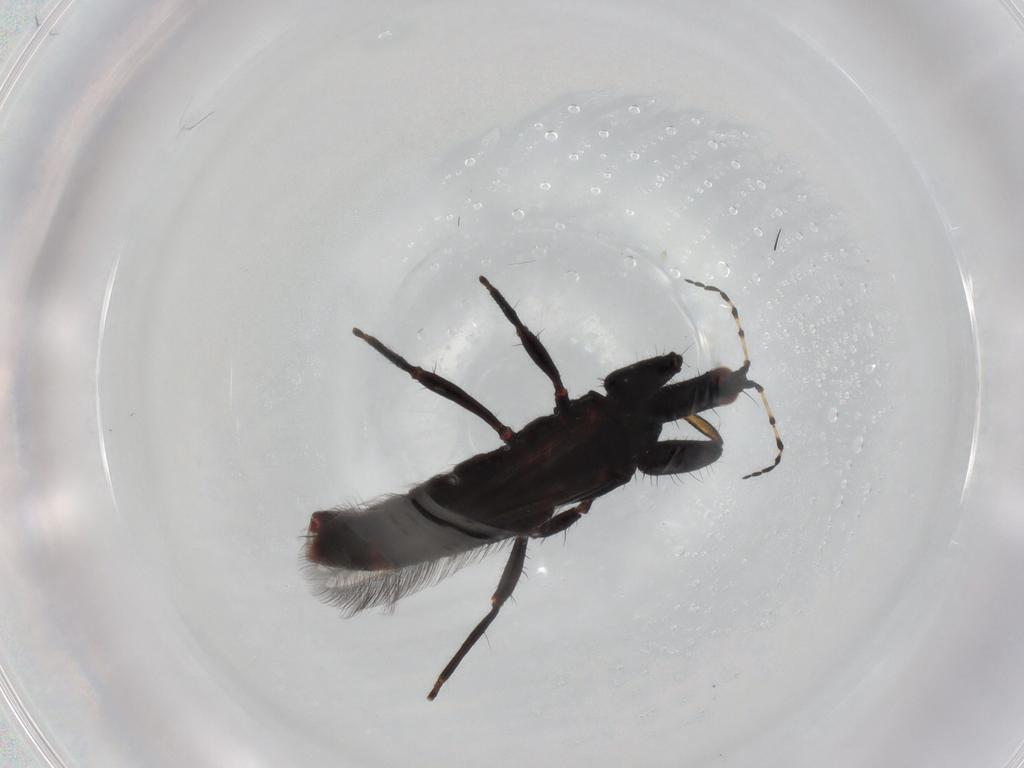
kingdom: Animalia
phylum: Arthropoda
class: Insecta
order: Thysanoptera
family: Phlaeothripidae
